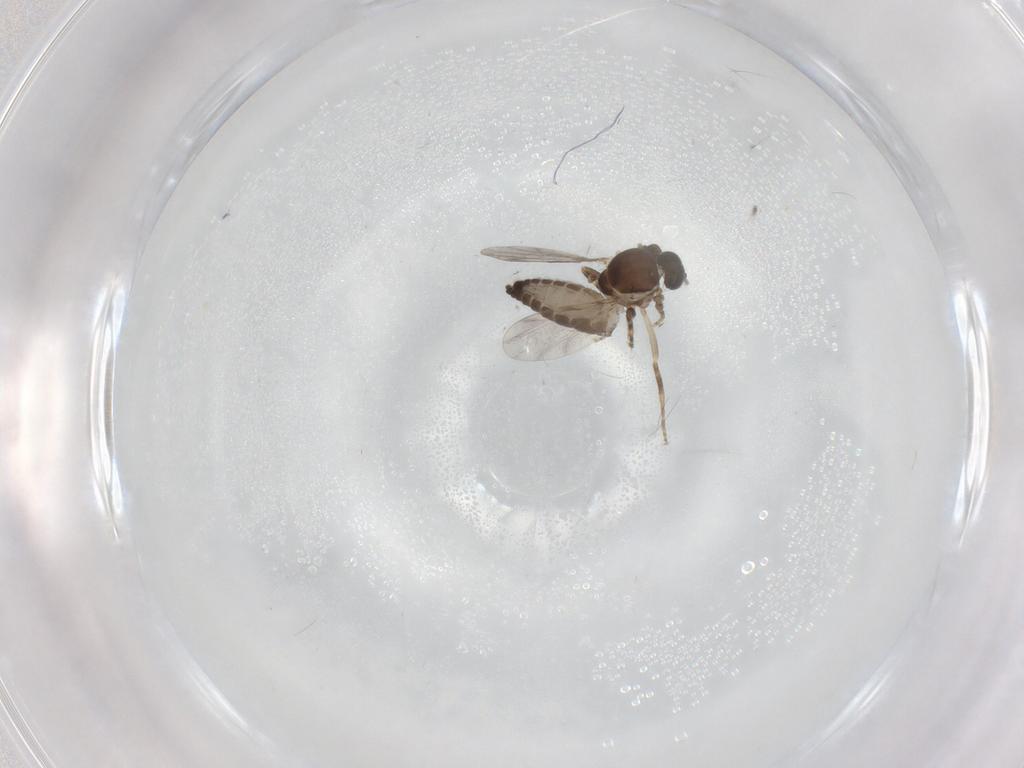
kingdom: Animalia
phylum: Arthropoda
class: Insecta
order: Diptera
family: Ceratopogonidae
